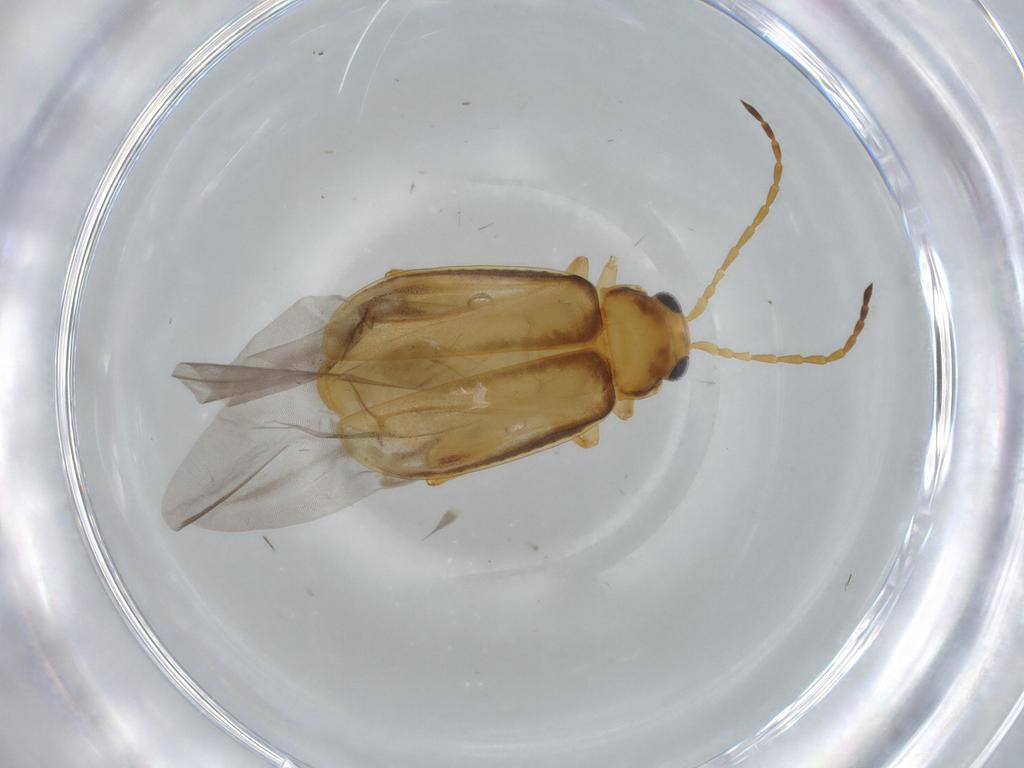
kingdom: Animalia
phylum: Arthropoda
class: Insecta
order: Coleoptera
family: Chrysomelidae
